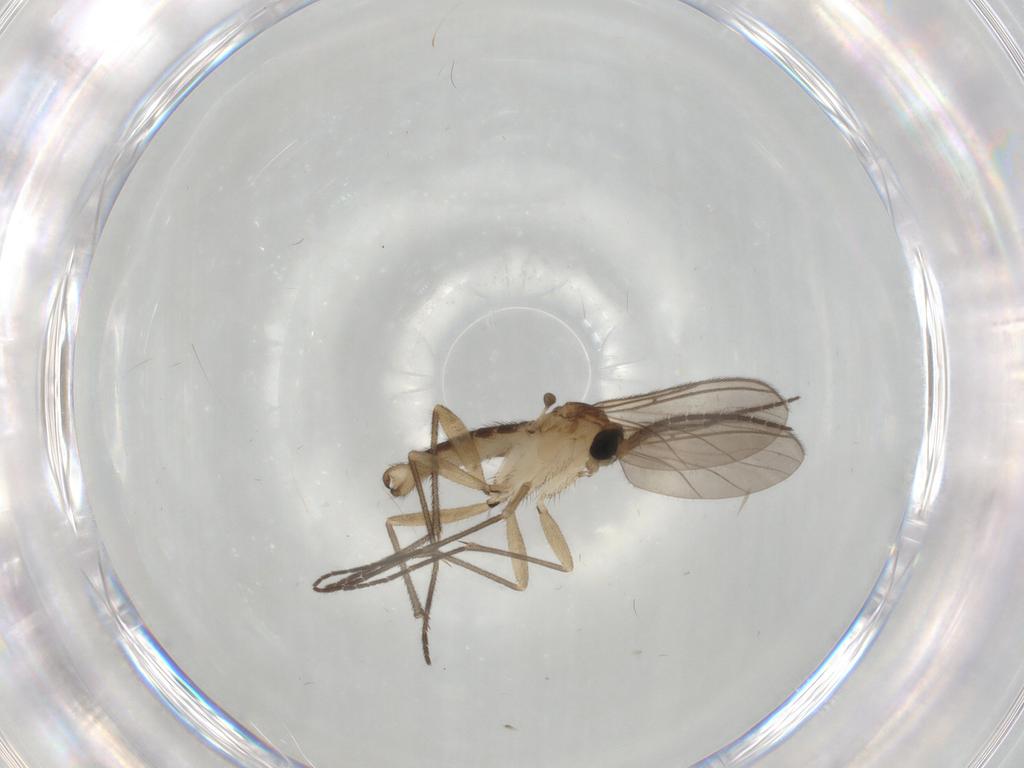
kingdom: Animalia
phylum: Arthropoda
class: Insecta
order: Diptera
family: Sciaridae
